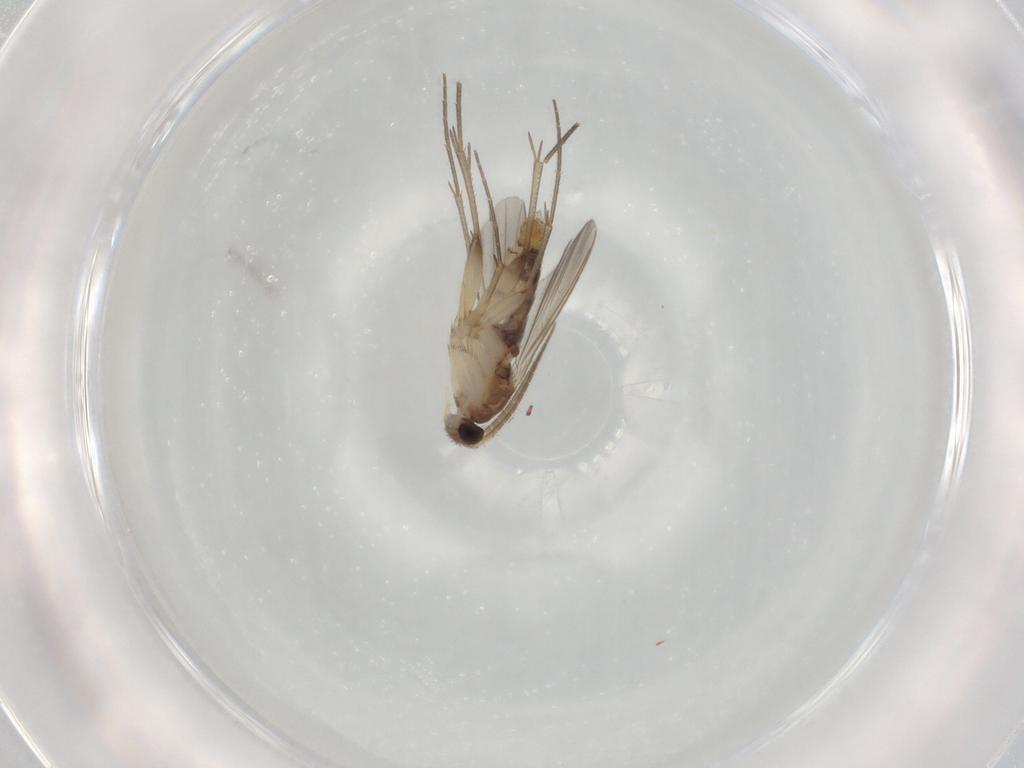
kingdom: Animalia
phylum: Arthropoda
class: Insecta
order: Diptera
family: Mycetophilidae
